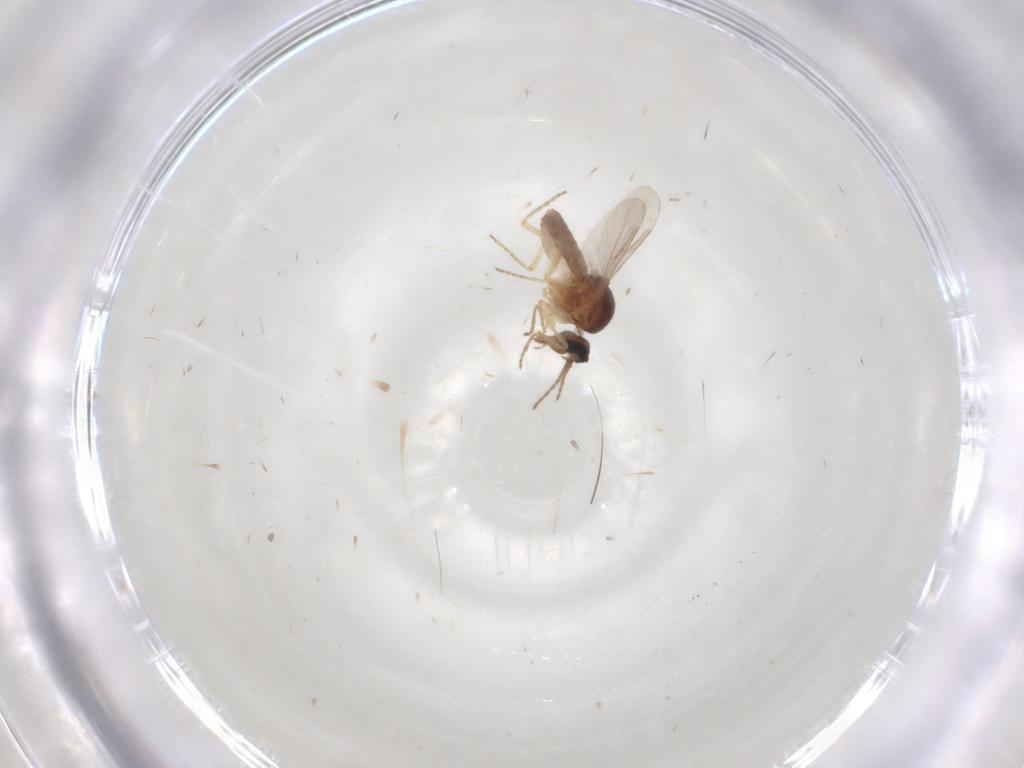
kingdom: Animalia
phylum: Arthropoda
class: Insecta
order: Diptera
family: Ceratopogonidae
